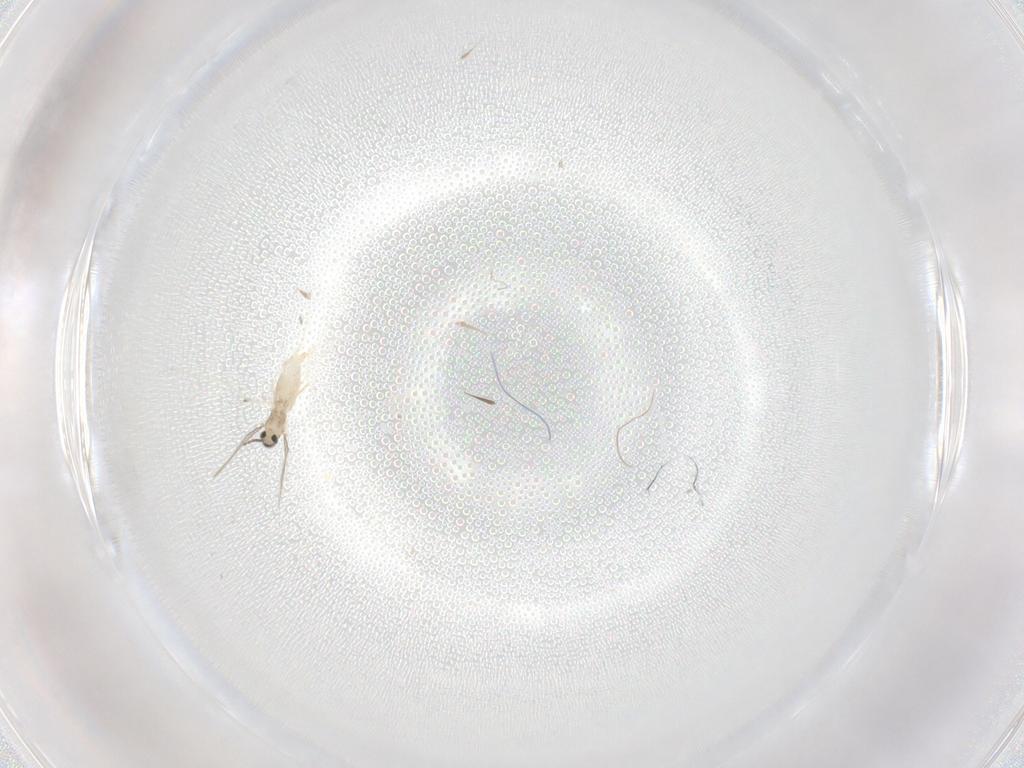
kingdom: Animalia
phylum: Arthropoda
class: Insecta
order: Diptera
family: Cecidomyiidae
